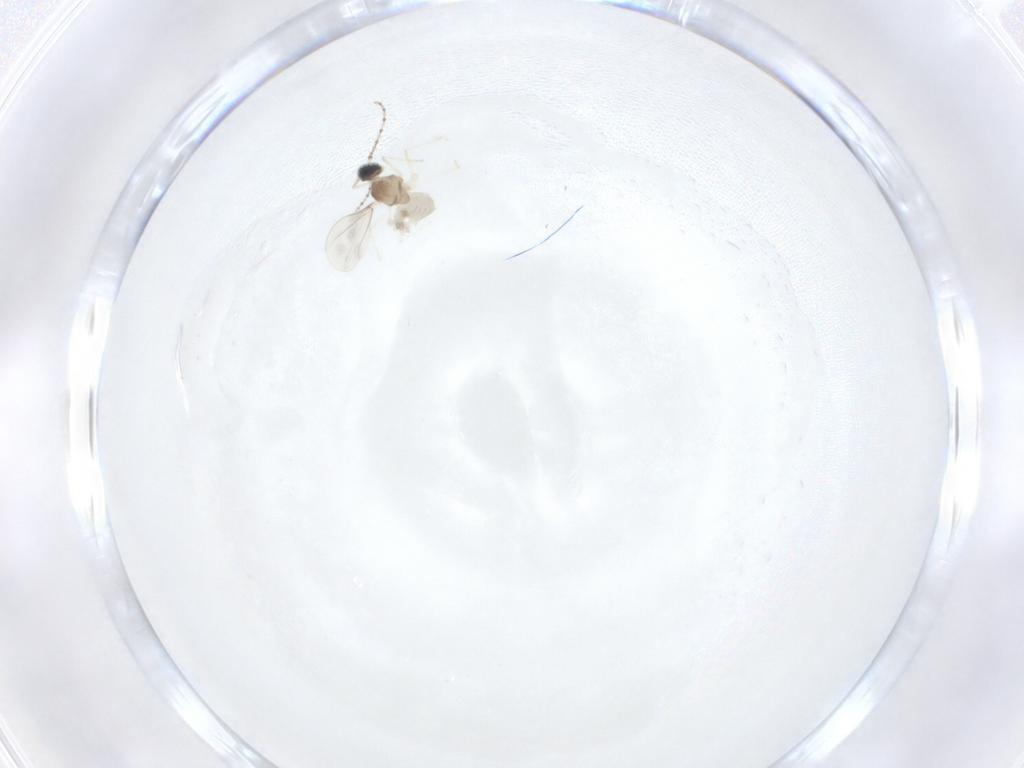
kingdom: Animalia
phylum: Arthropoda
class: Insecta
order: Diptera
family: Cecidomyiidae
